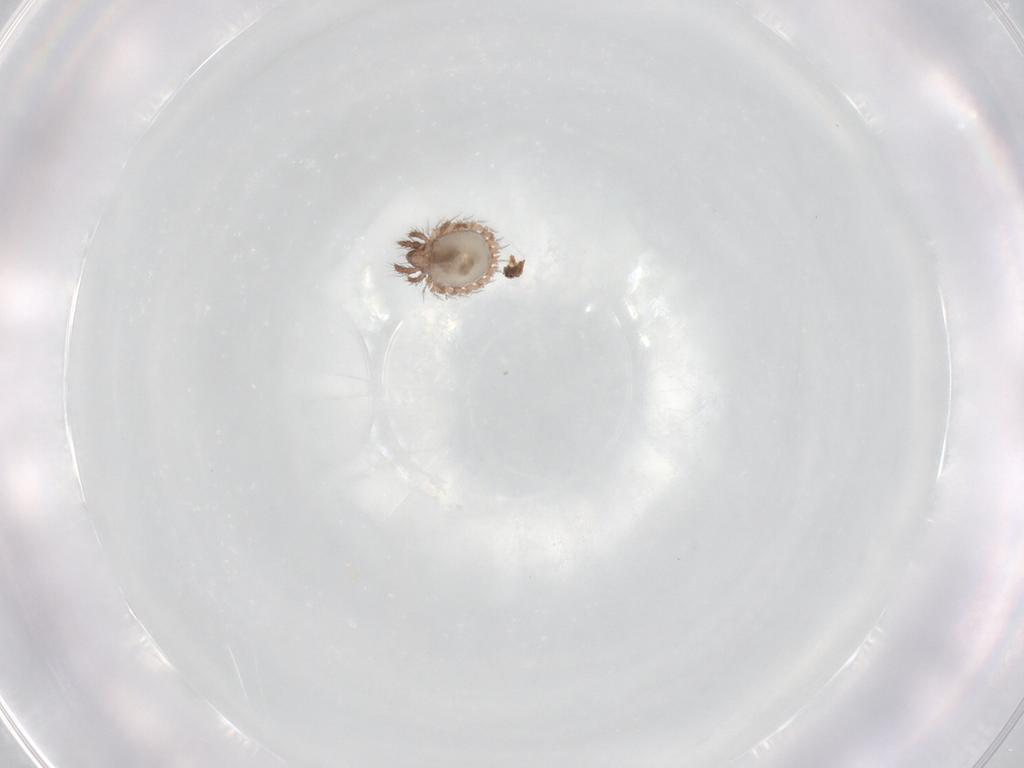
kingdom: Animalia
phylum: Arthropoda
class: Arachnida
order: Sarcoptiformes
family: Cepheusidae
